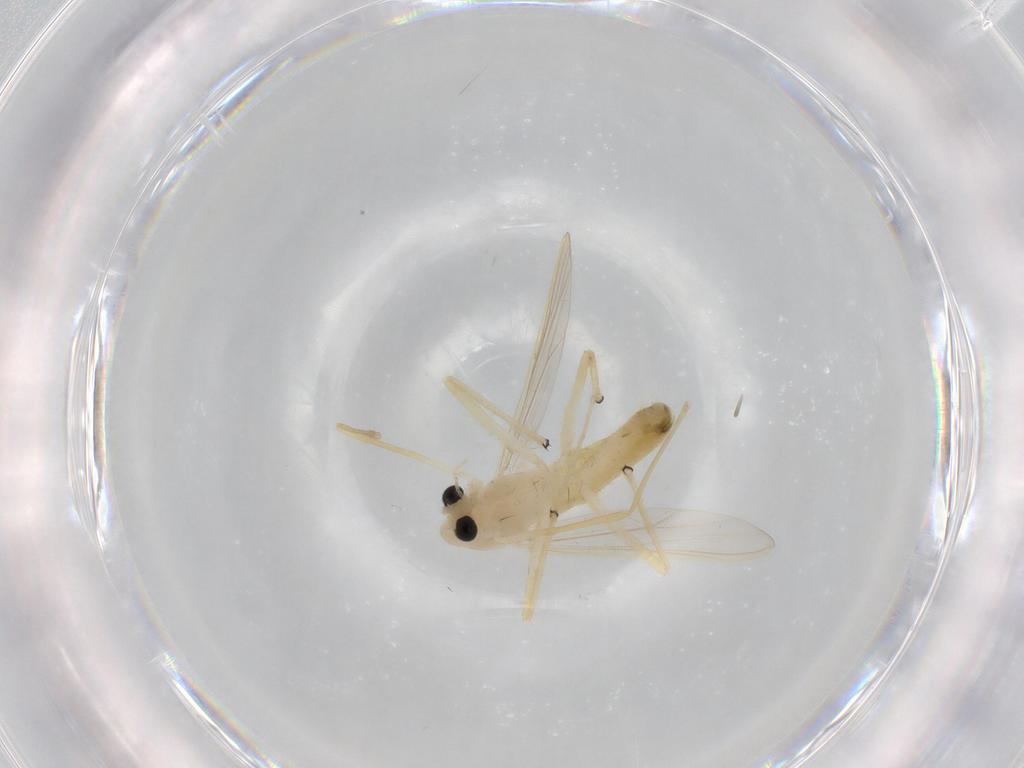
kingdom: Animalia
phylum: Arthropoda
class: Insecta
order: Diptera
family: Chironomidae
